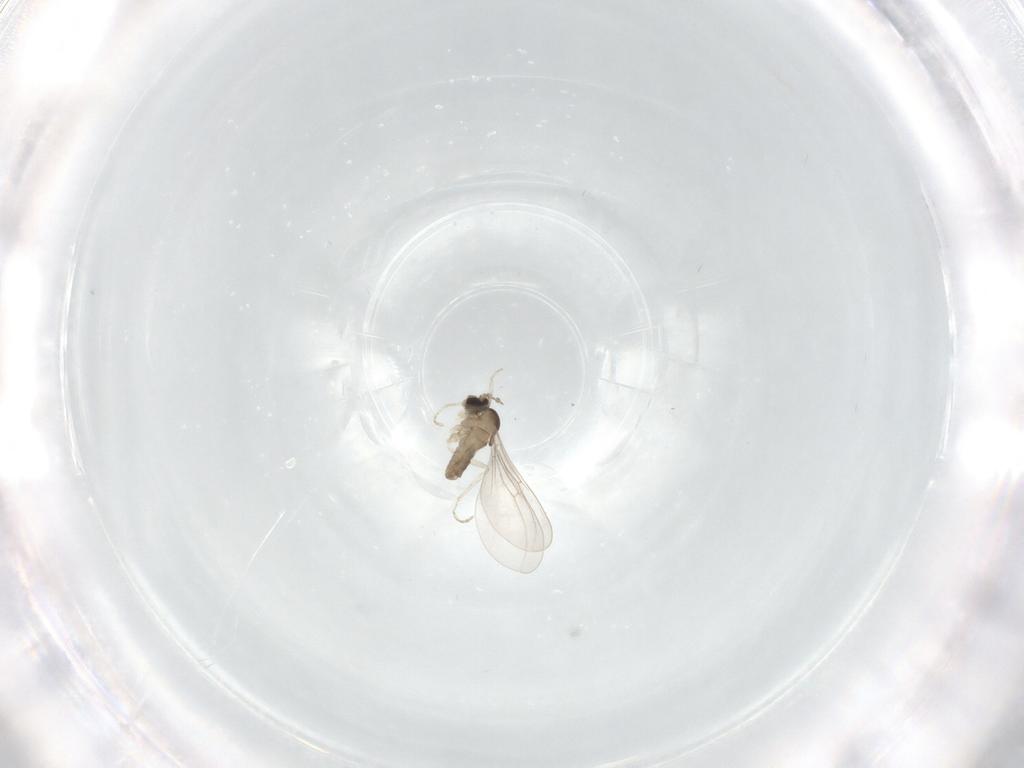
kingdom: Animalia
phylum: Arthropoda
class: Insecta
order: Diptera
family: Cecidomyiidae
